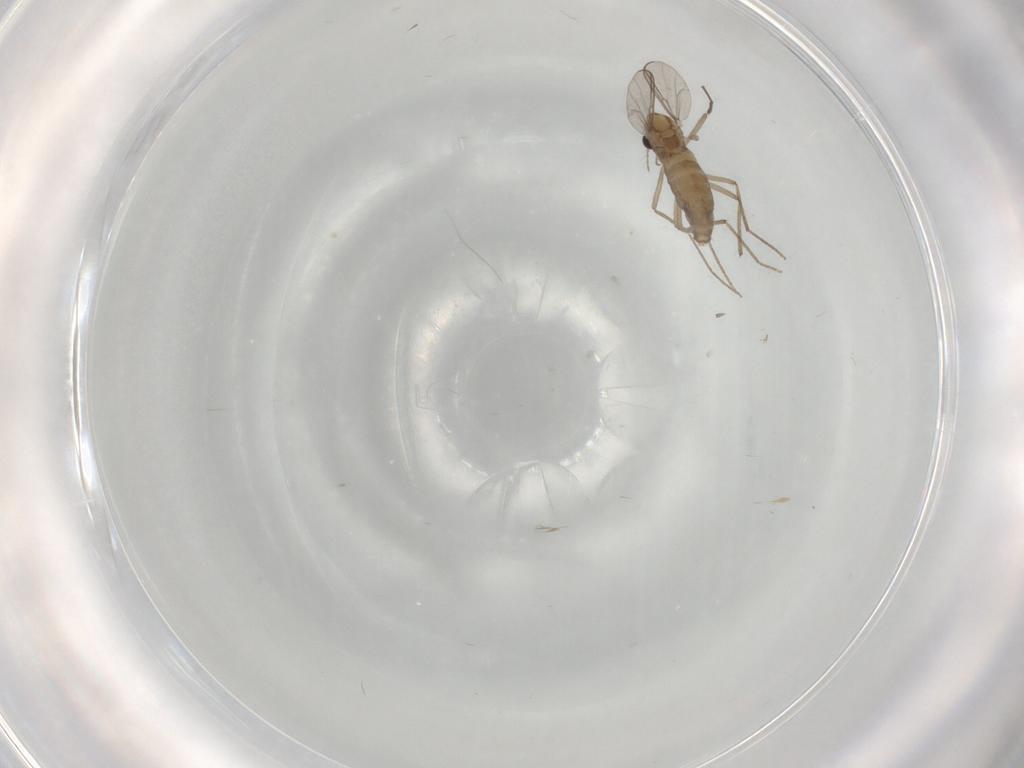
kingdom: Animalia
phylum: Arthropoda
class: Insecta
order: Diptera
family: Chironomidae
